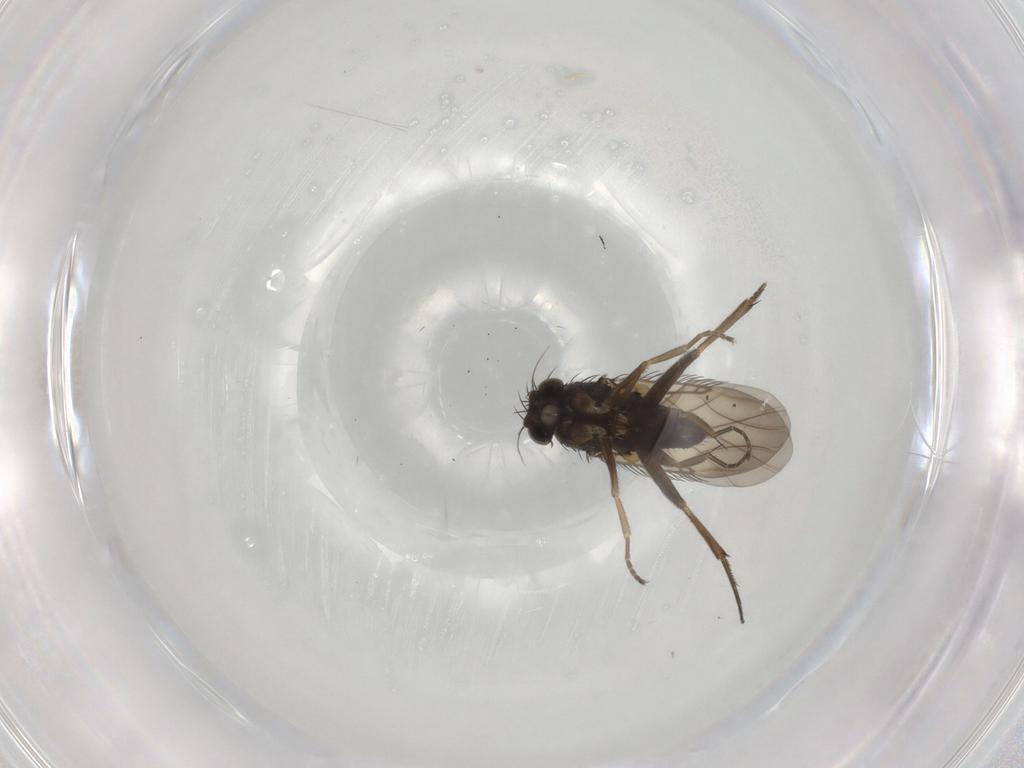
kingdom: Animalia
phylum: Arthropoda
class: Insecta
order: Diptera
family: Phoridae
